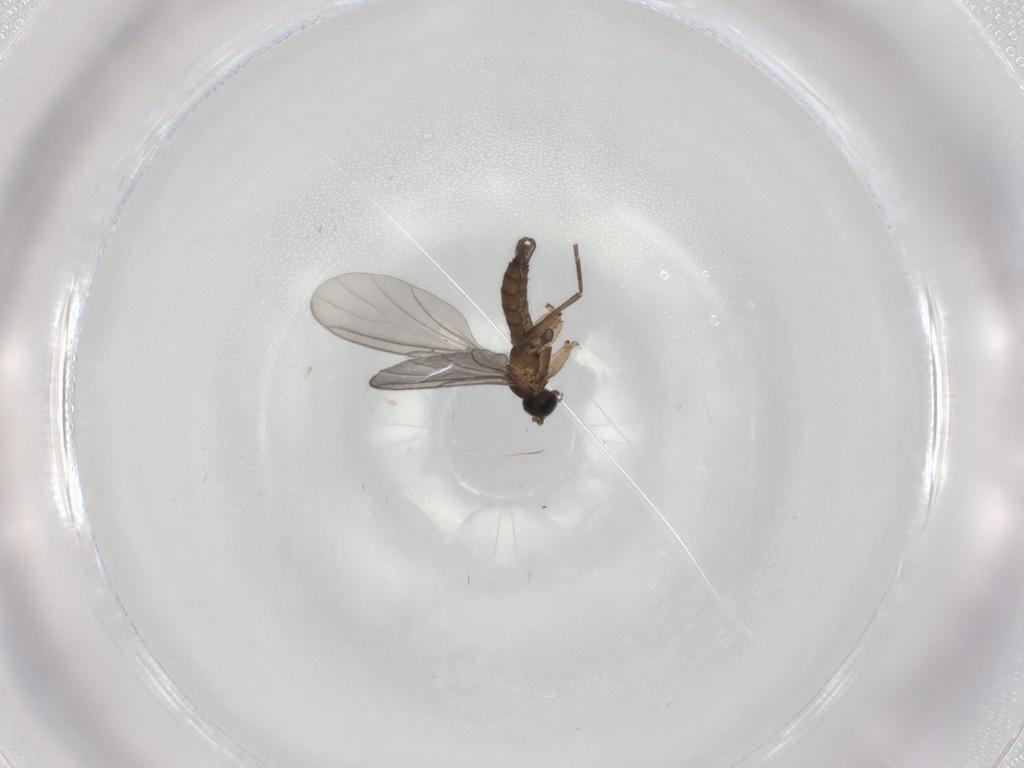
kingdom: Animalia
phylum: Arthropoda
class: Insecta
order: Diptera
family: Sciaridae
